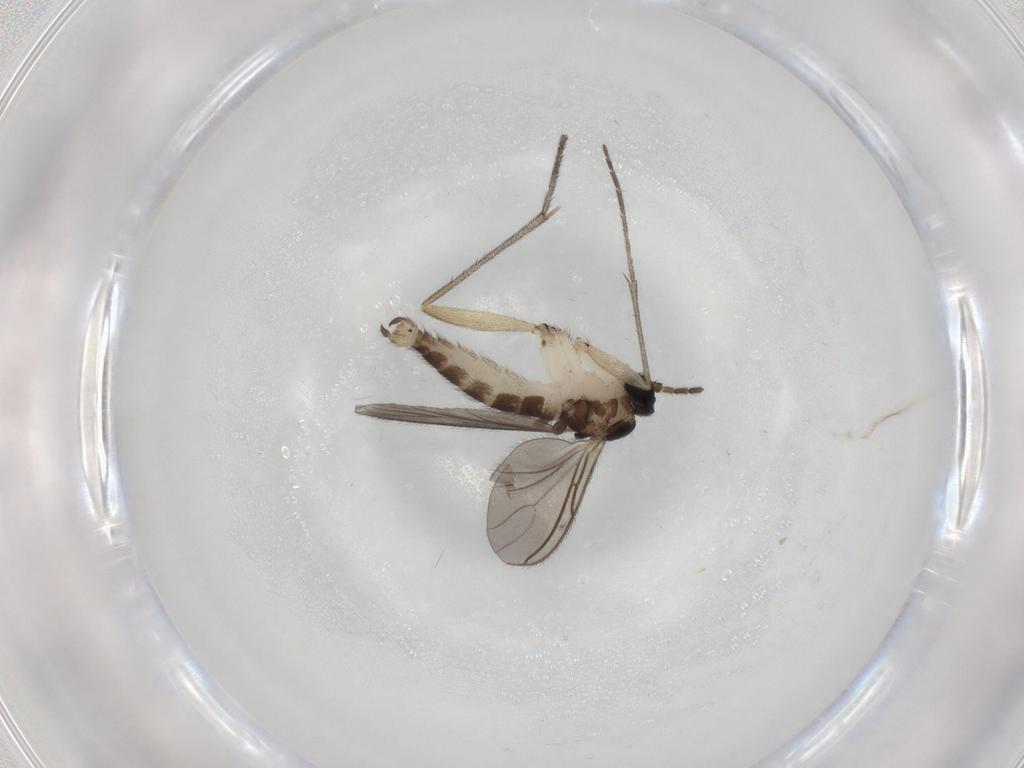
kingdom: Animalia
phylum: Arthropoda
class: Insecta
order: Diptera
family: Sciaridae
